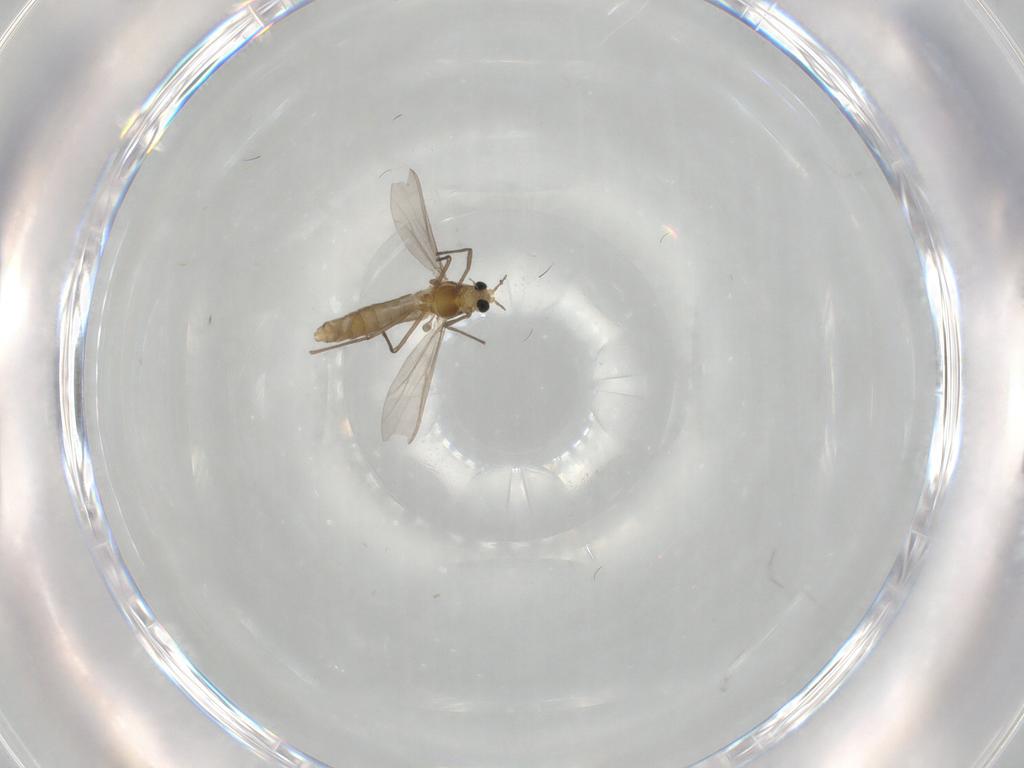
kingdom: Animalia
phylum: Arthropoda
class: Insecta
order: Diptera
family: Chironomidae
